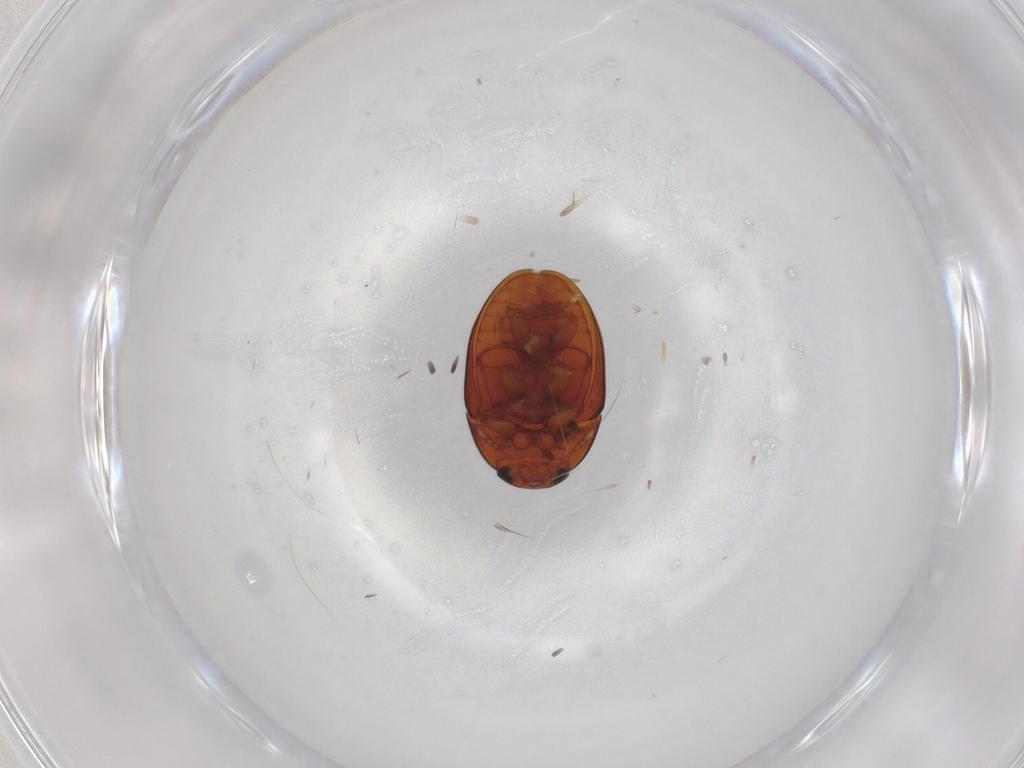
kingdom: Animalia
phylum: Arthropoda
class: Insecta
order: Coleoptera
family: Phalacridae
